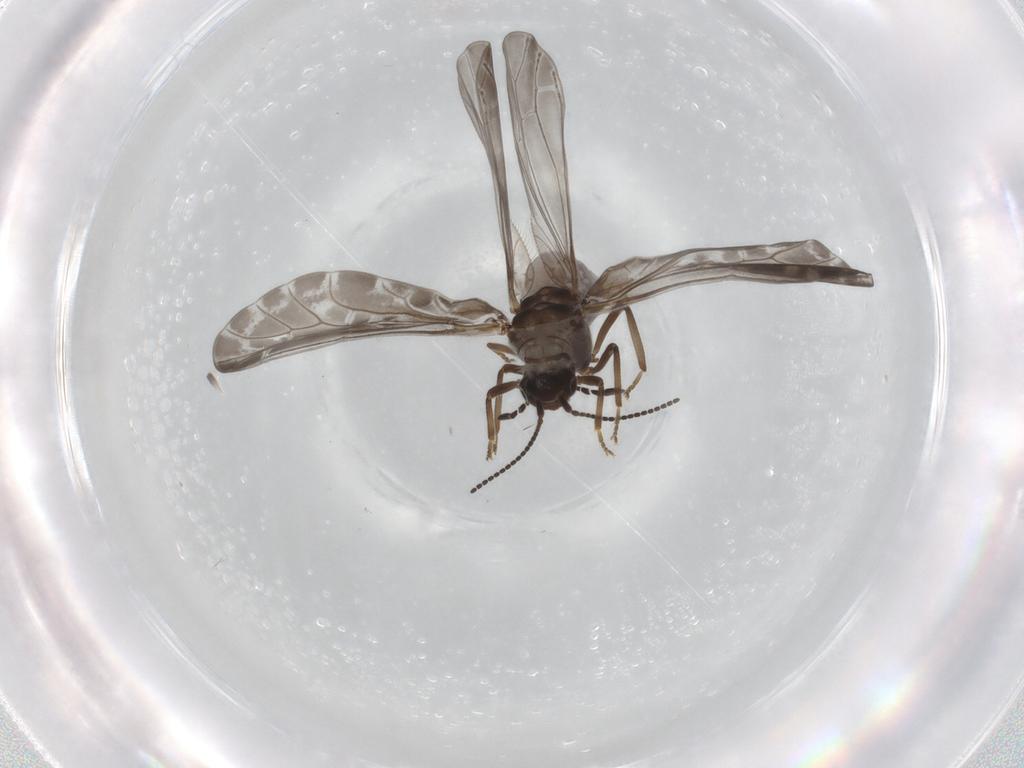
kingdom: Animalia
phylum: Arthropoda
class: Insecta
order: Neuroptera
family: Coniopterygidae
